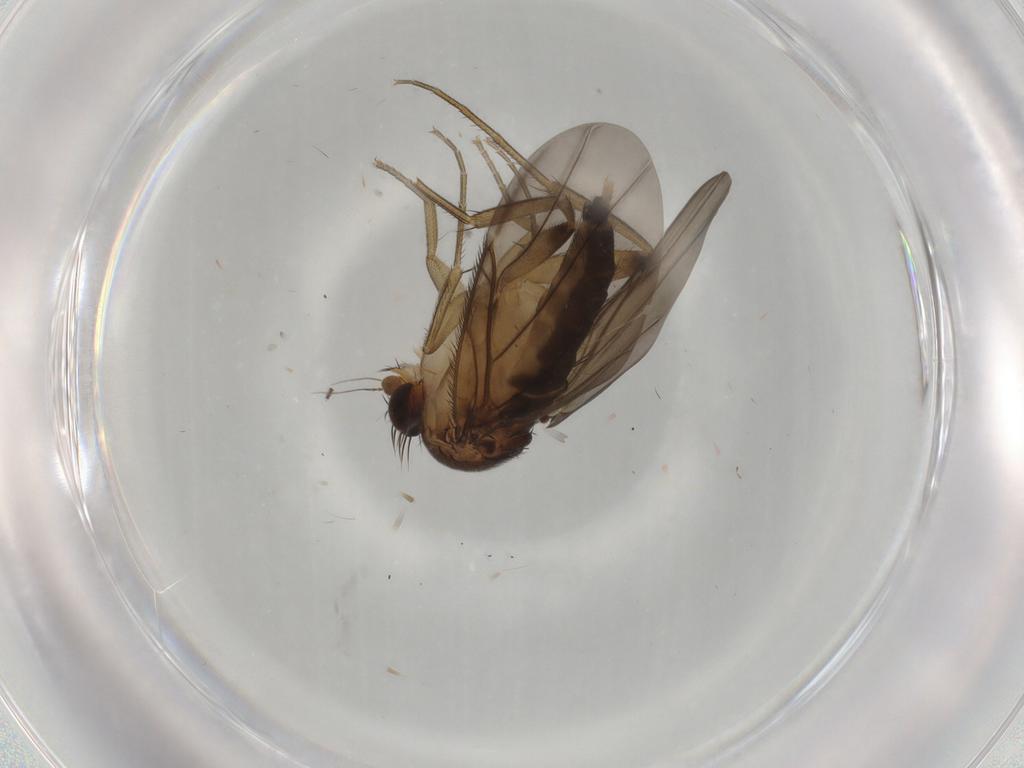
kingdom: Animalia
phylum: Arthropoda
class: Insecta
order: Diptera
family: Phoridae
